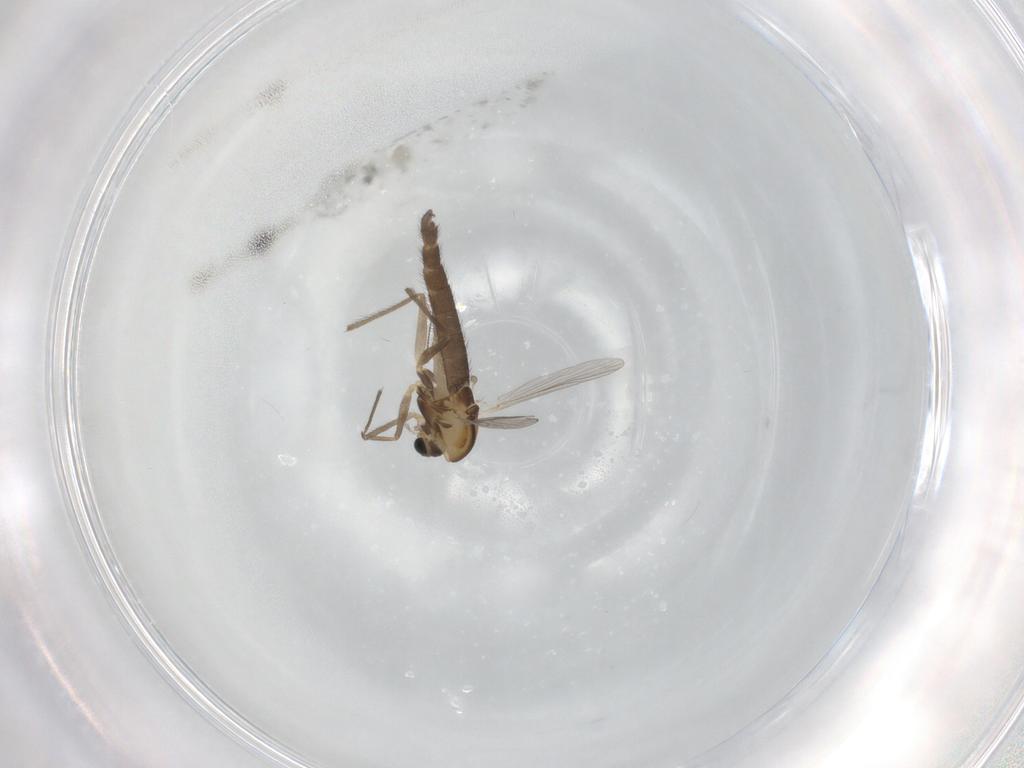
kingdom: Animalia
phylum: Arthropoda
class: Insecta
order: Diptera
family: Chironomidae
